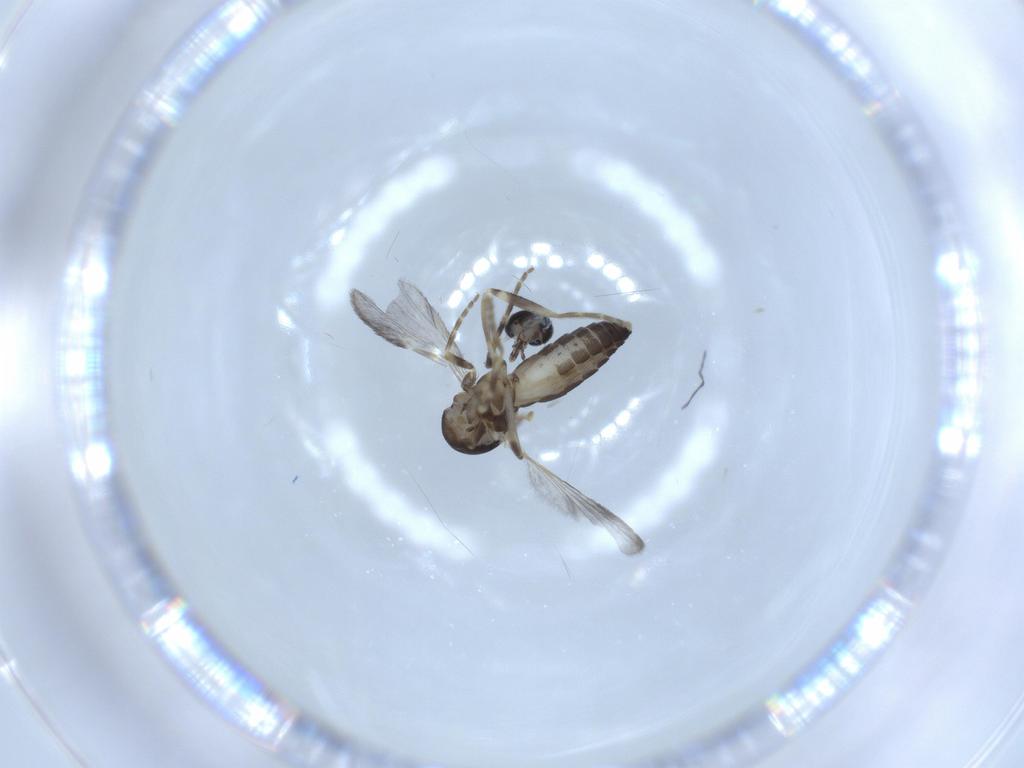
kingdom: Animalia
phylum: Arthropoda
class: Insecta
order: Diptera
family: Ceratopogonidae
